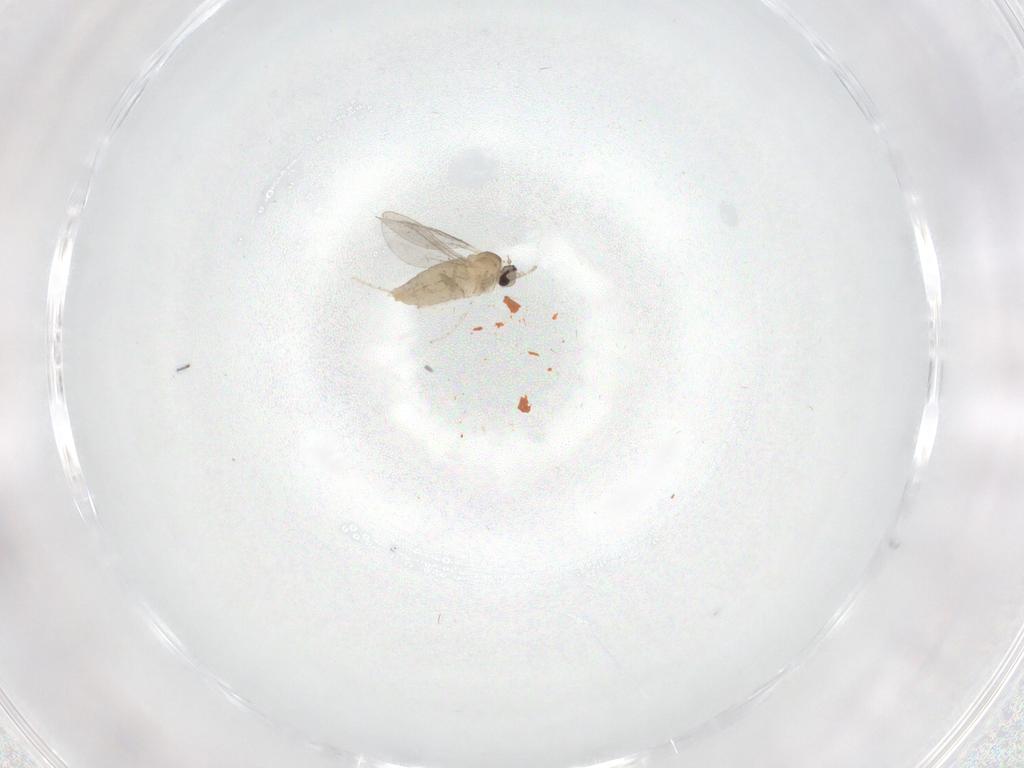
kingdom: Animalia
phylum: Arthropoda
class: Insecta
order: Diptera
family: Cecidomyiidae
